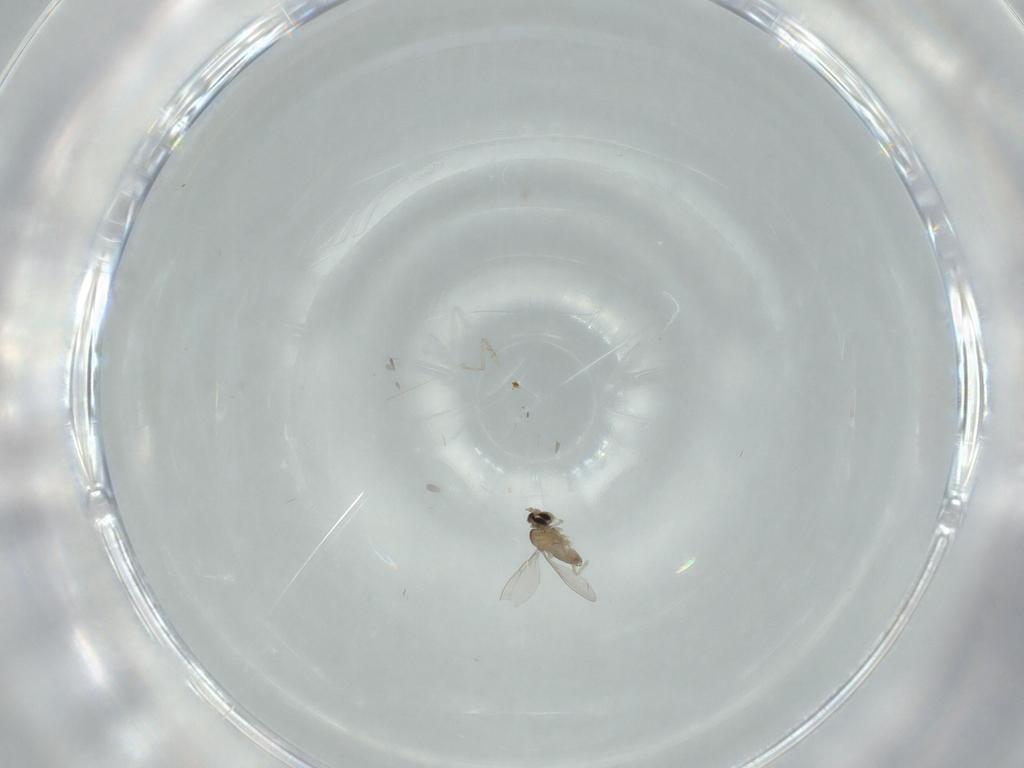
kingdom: Animalia
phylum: Arthropoda
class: Insecta
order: Diptera
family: Cecidomyiidae
